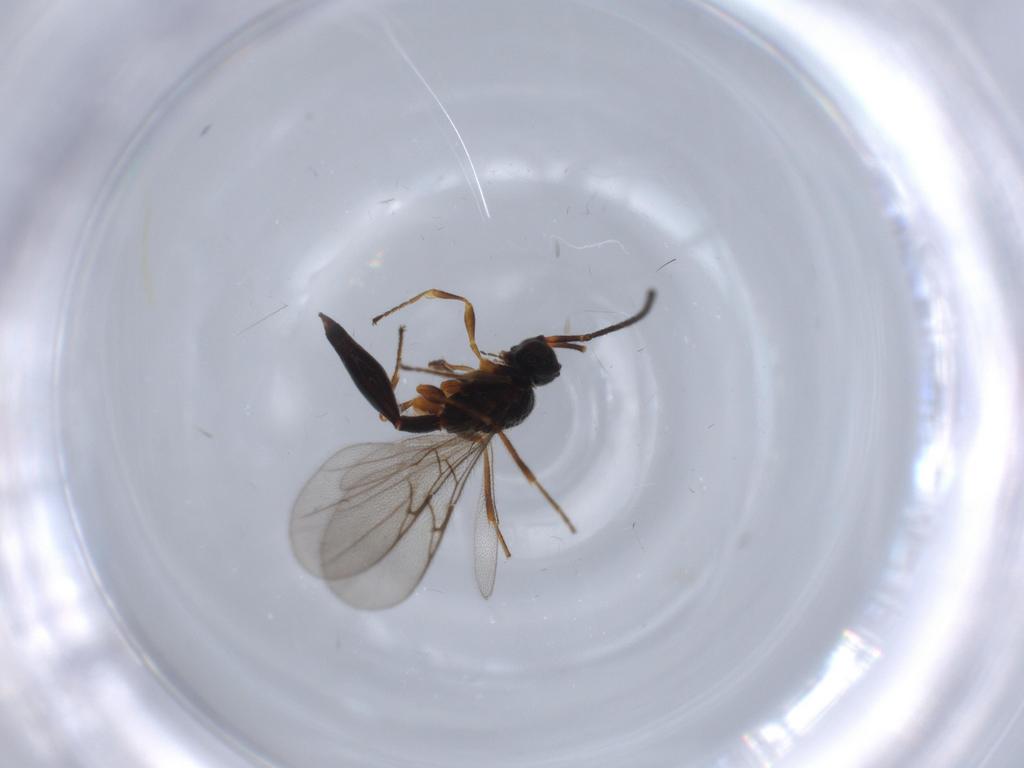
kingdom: Animalia
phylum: Arthropoda
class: Insecta
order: Hymenoptera
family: Diapriidae
